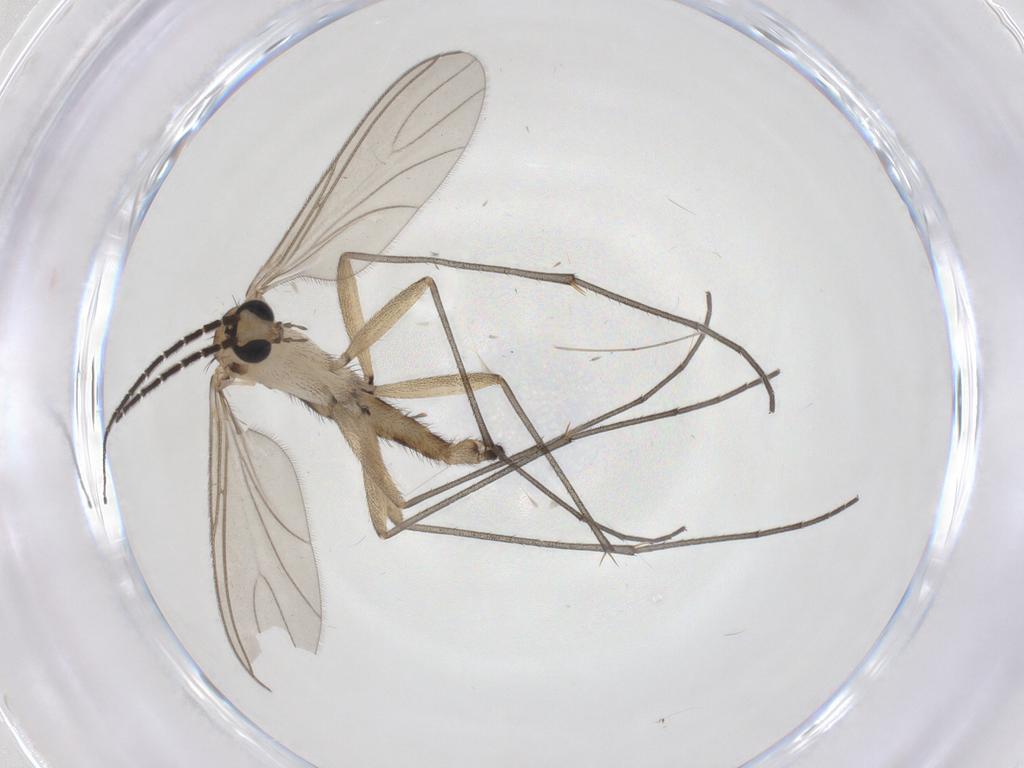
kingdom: Animalia
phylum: Arthropoda
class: Insecta
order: Diptera
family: Sciaridae
